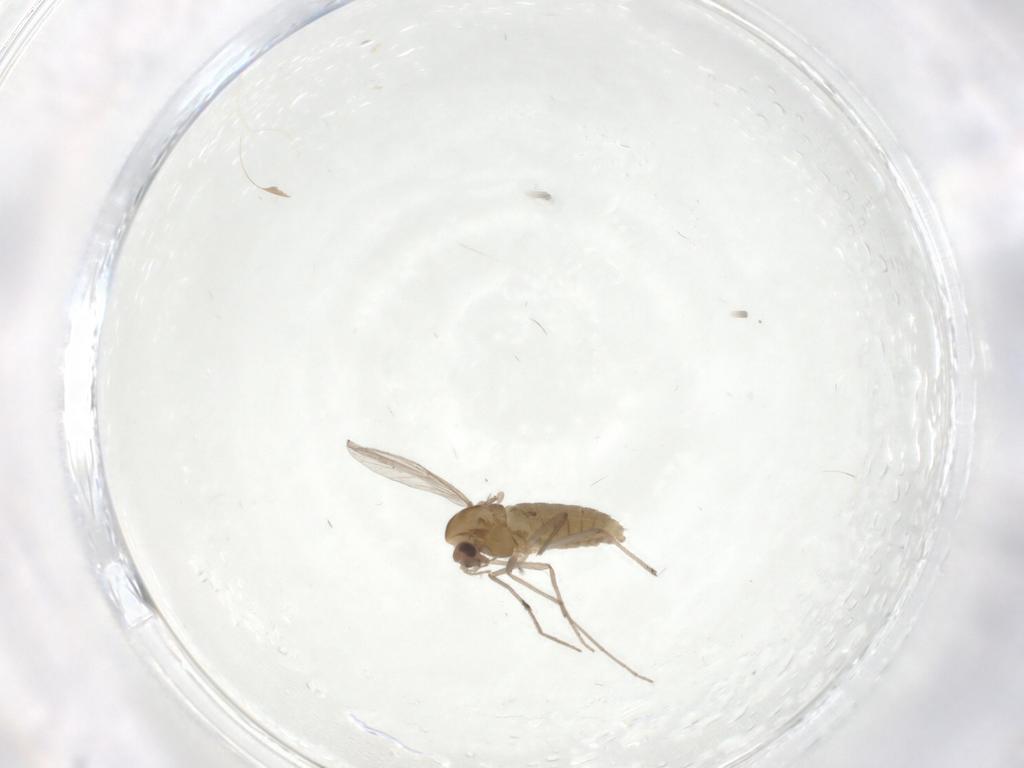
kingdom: Animalia
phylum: Arthropoda
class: Insecta
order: Diptera
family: Chironomidae
